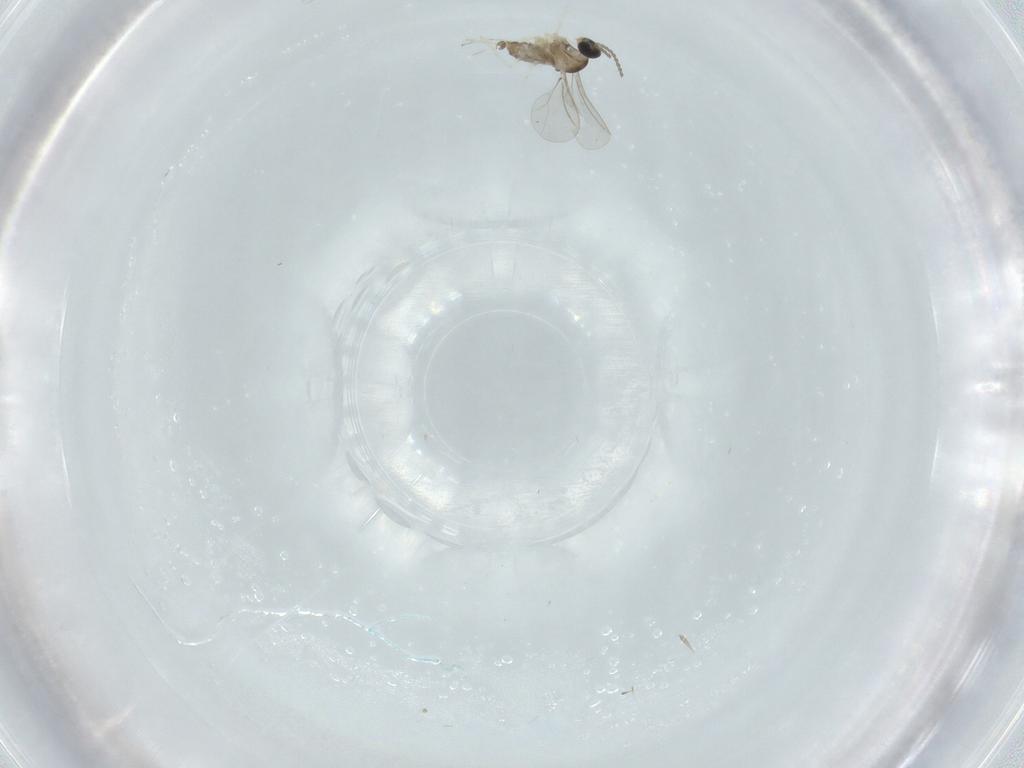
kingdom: Animalia
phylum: Arthropoda
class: Insecta
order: Diptera
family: Cecidomyiidae
